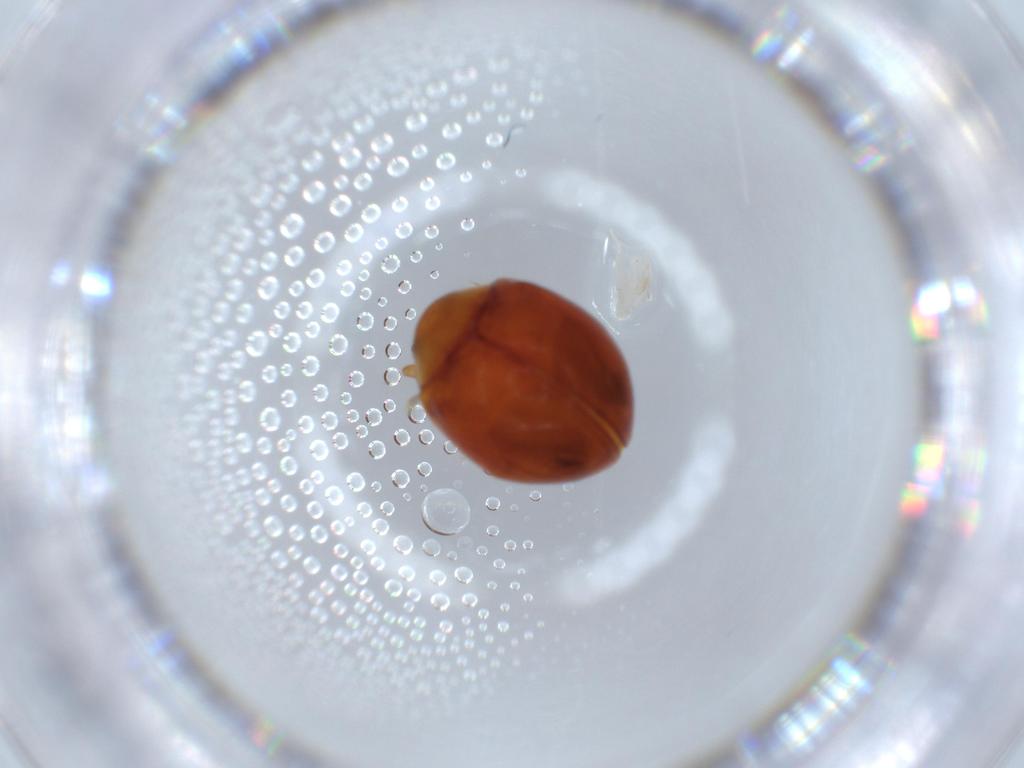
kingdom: Animalia
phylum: Arthropoda
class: Insecta
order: Coleoptera
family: Coccinellidae
